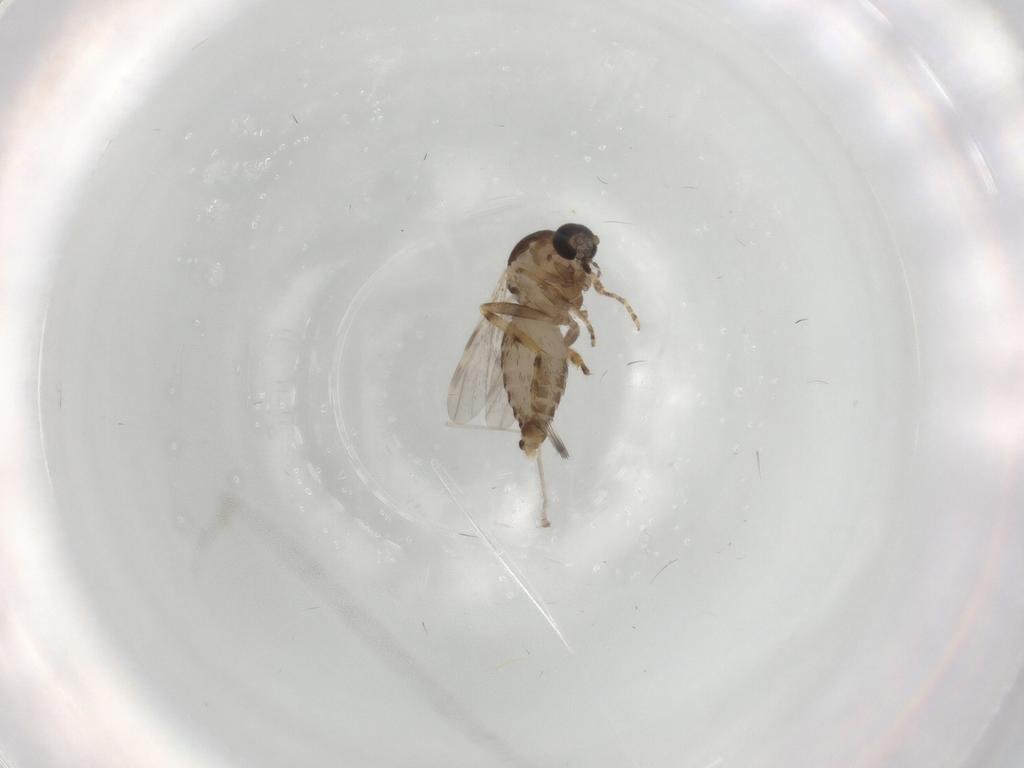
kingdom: Animalia
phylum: Arthropoda
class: Insecta
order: Diptera
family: Ceratopogonidae
